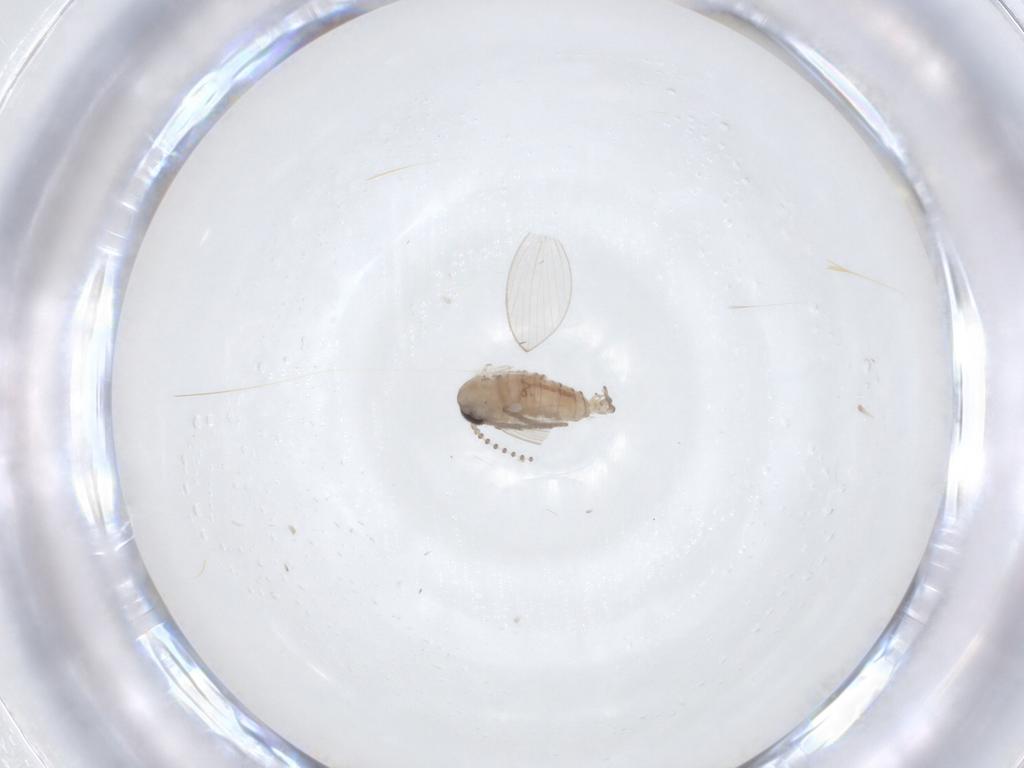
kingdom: Animalia
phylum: Arthropoda
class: Insecta
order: Diptera
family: Psychodidae
